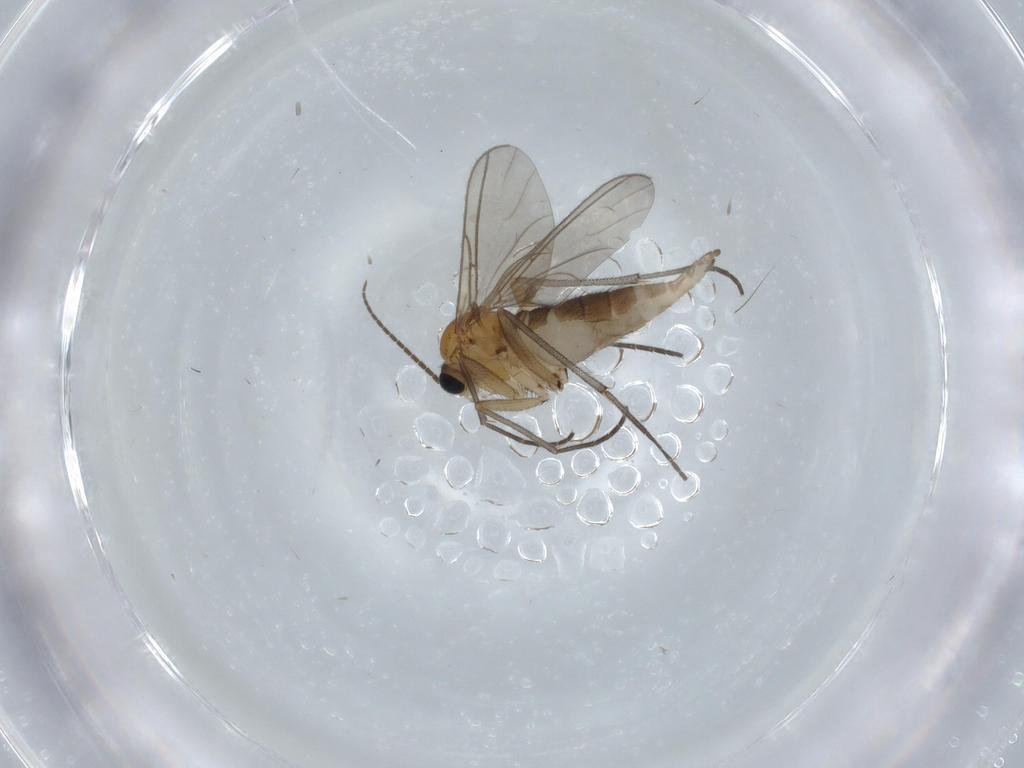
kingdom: Animalia
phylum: Arthropoda
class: Insecta
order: Diptera
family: Sciaridae
